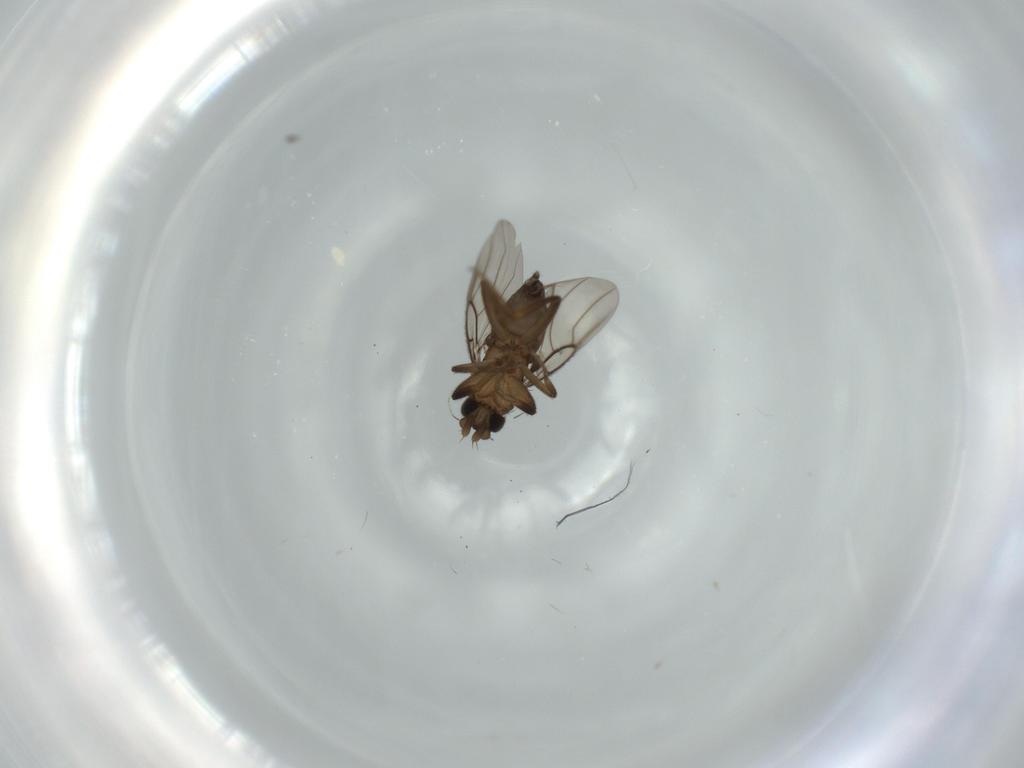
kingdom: Animalia
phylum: Arthropoda
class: Insecta
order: Diptera
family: Phoridae
